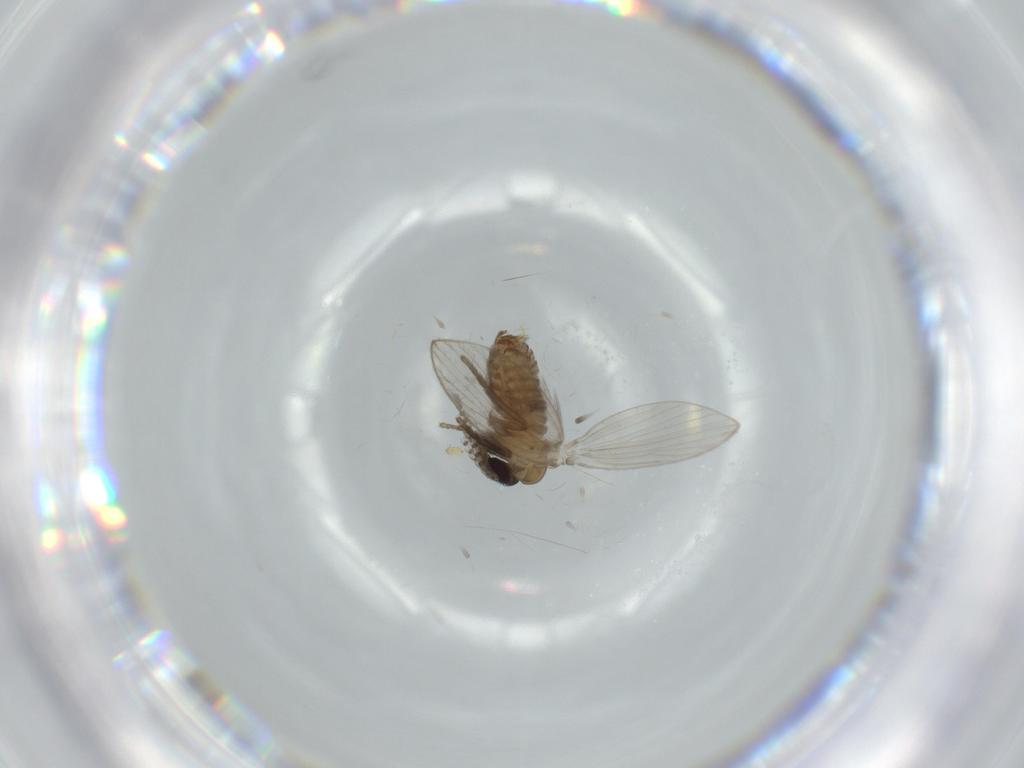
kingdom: Animalia
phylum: Arthropoda
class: Insecta
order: Diptera
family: Psychodidae
